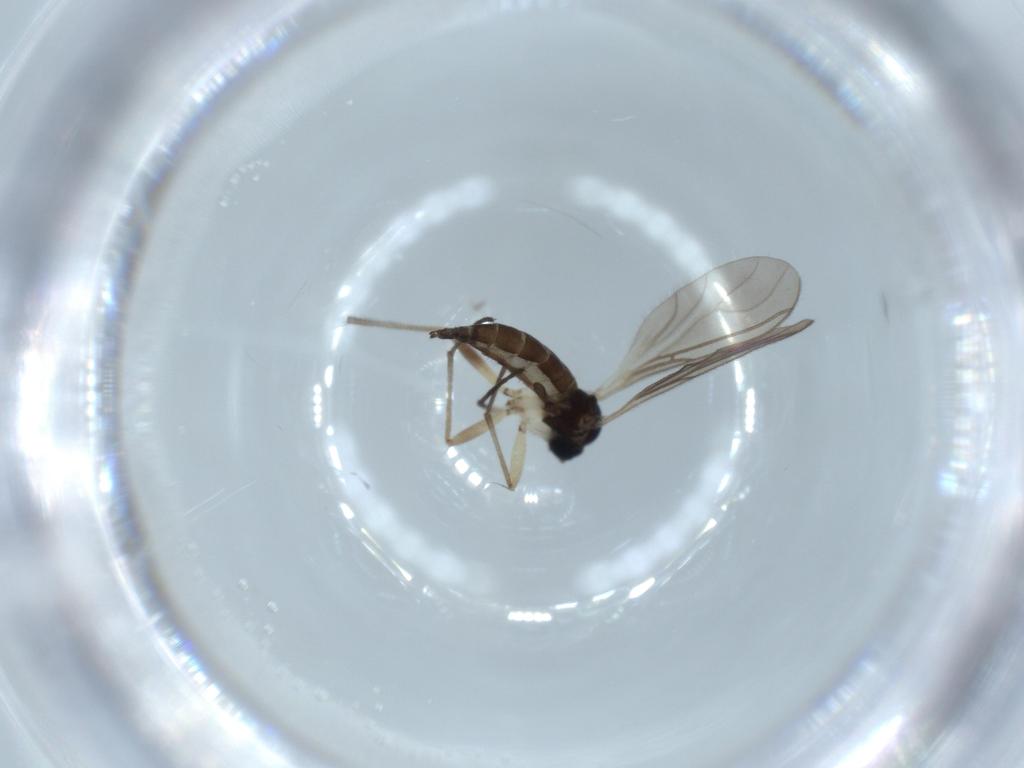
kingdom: Animalia
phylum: Arthropoda
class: Insecta
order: Diptera
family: Sciaridae
